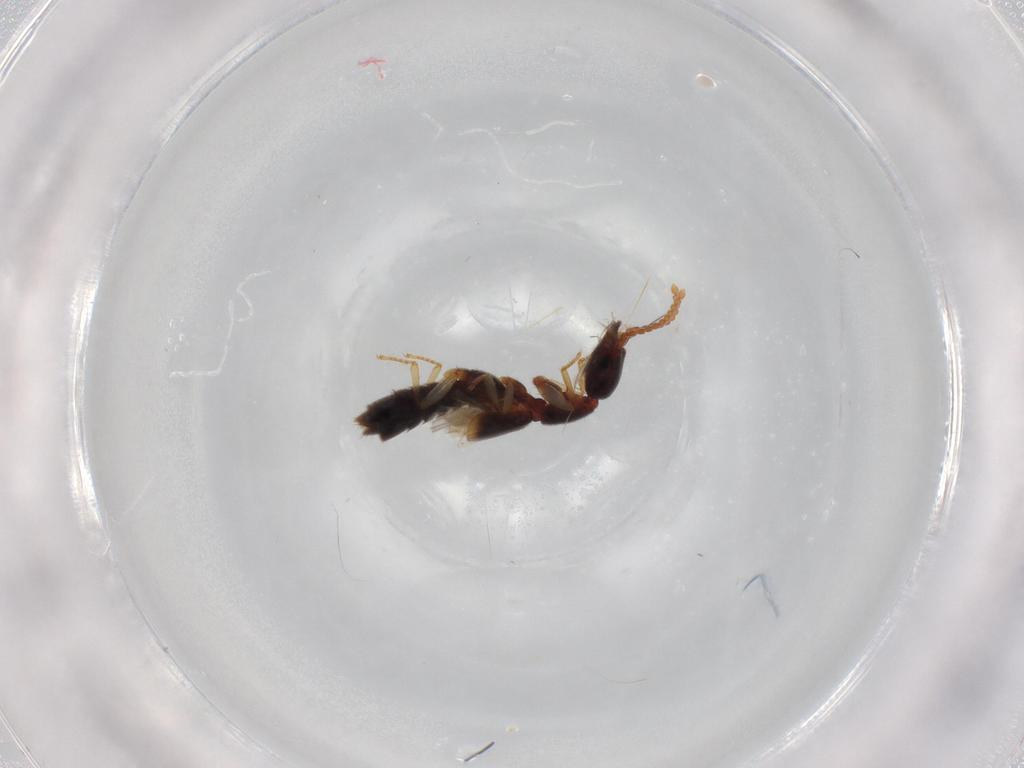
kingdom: Animalia
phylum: Arthropoda
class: Insecta
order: Coleoptera
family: Staphylinidae
